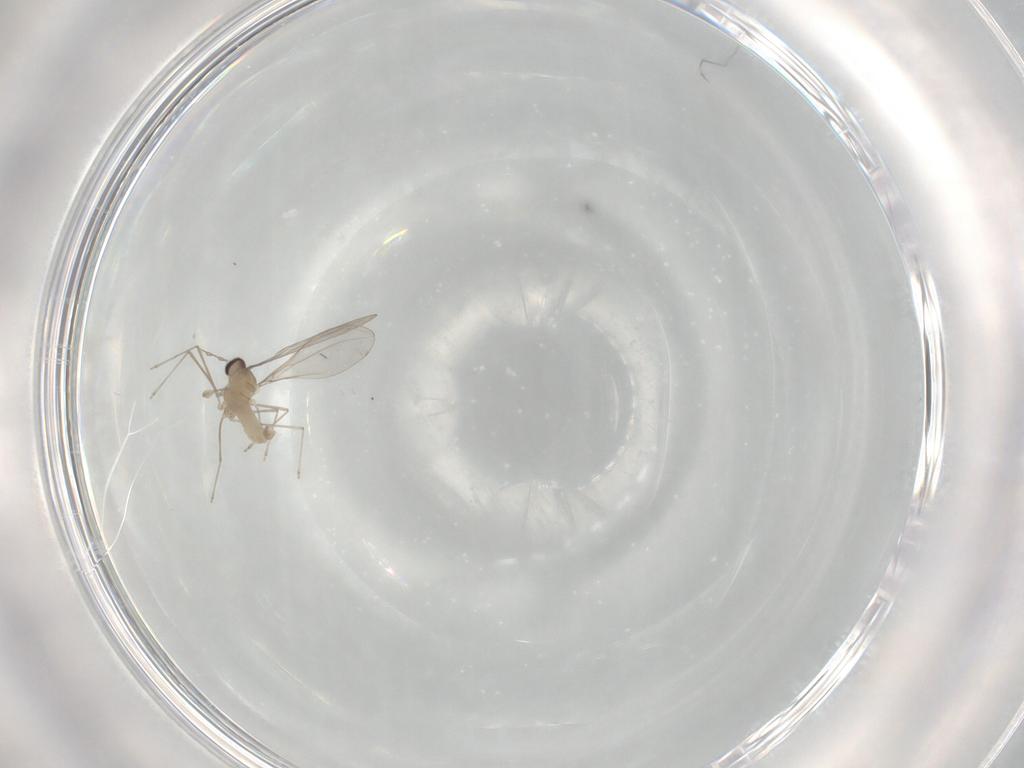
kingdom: Animalia
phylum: Arthropoda
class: Insecta
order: Diptera
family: Cecidomyiidae
